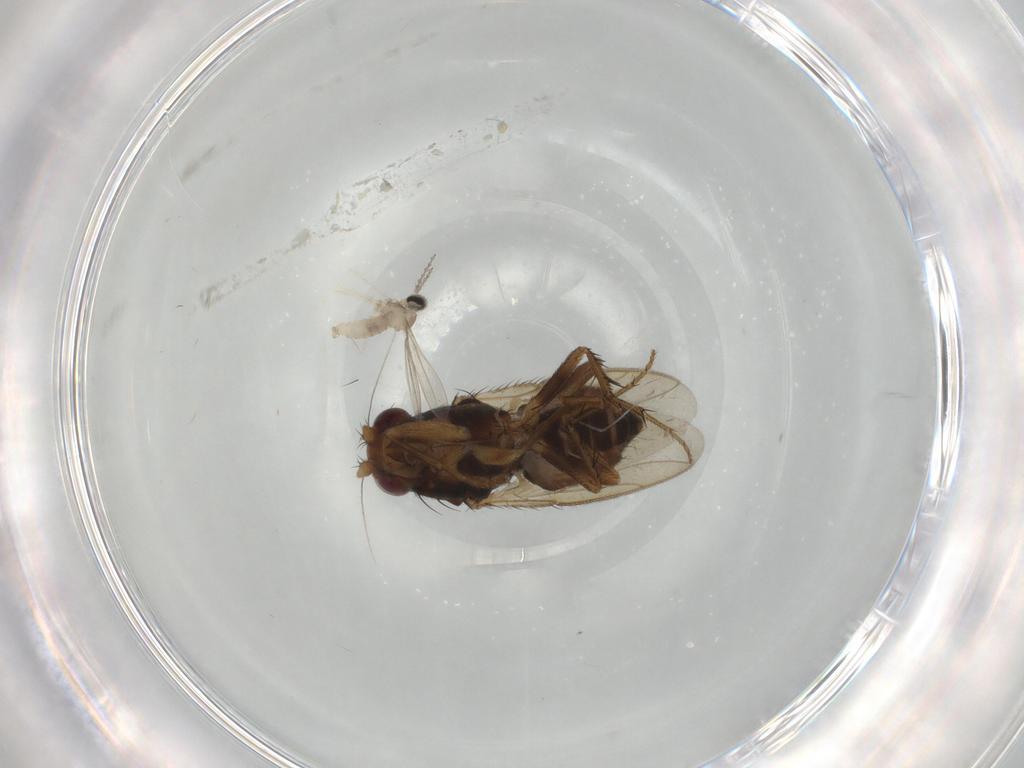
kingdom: Animalia
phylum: Arthropoda
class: Insecta
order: Diptera
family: Sphaeroceridae
